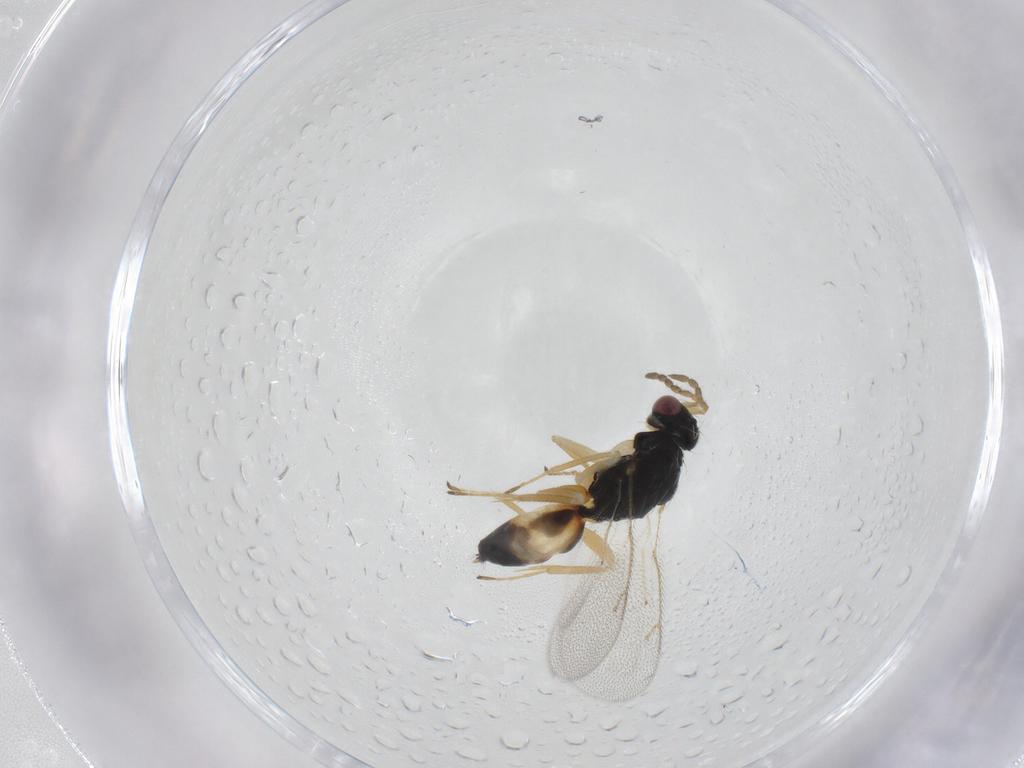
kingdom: Animalia
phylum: Arthropoda
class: Insecta
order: Hymenoptera
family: Eulophidae
